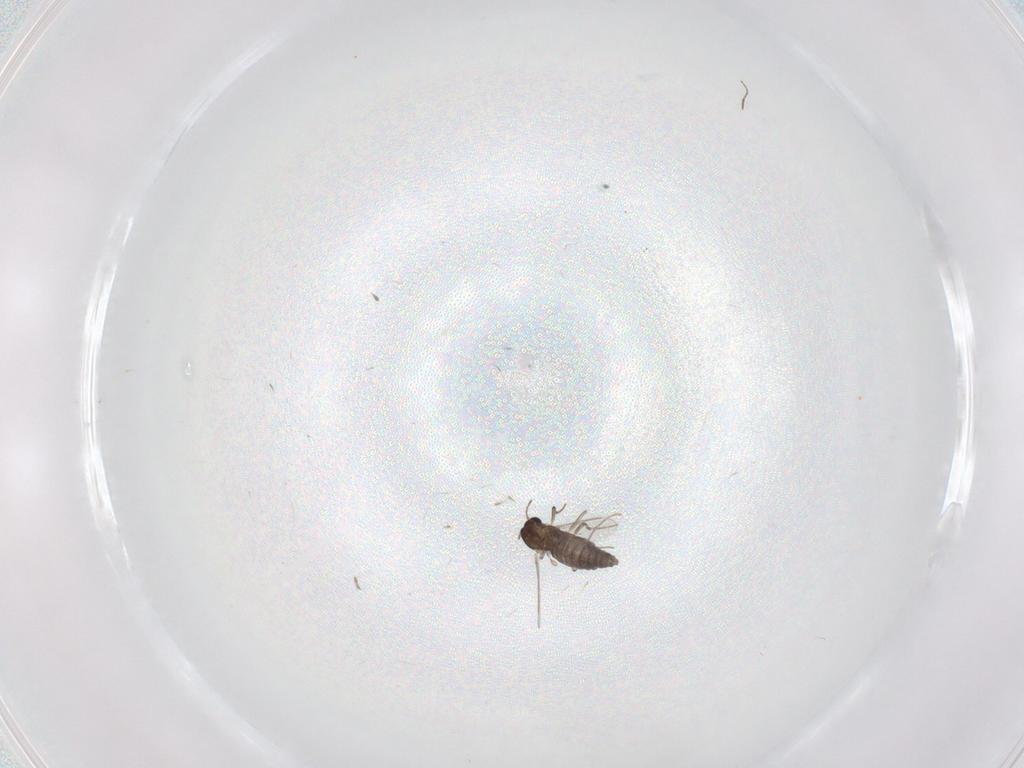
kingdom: Animalia
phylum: Arthropoda
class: Insecta
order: Diptera
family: Chironomidae
